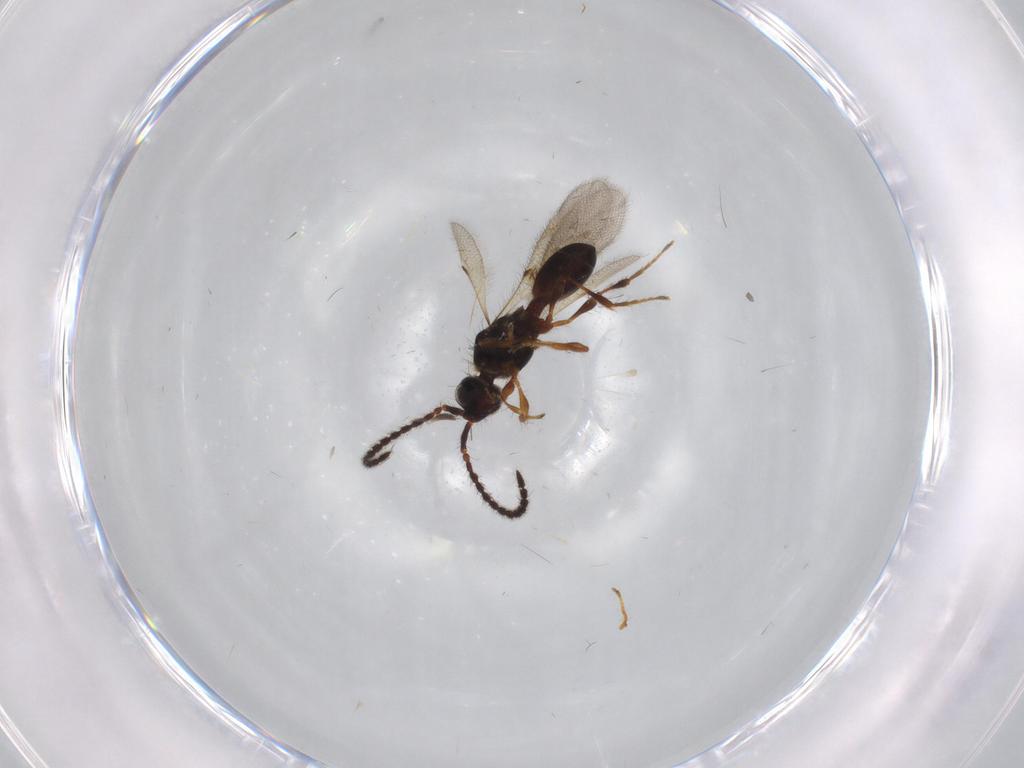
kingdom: Animalia
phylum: Arthropoda
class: Insecta
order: Hymenoptera
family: Diapriidae
